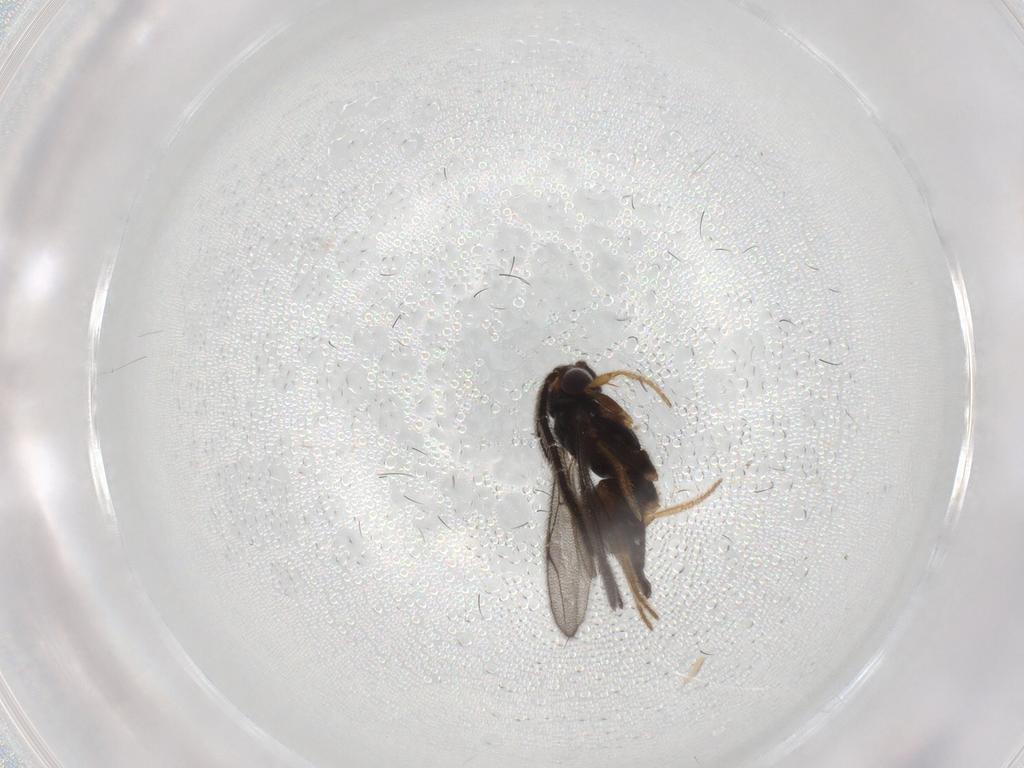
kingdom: Animalia
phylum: Arthropoda
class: Insecta
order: Hymenoptera
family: Dryinidae
